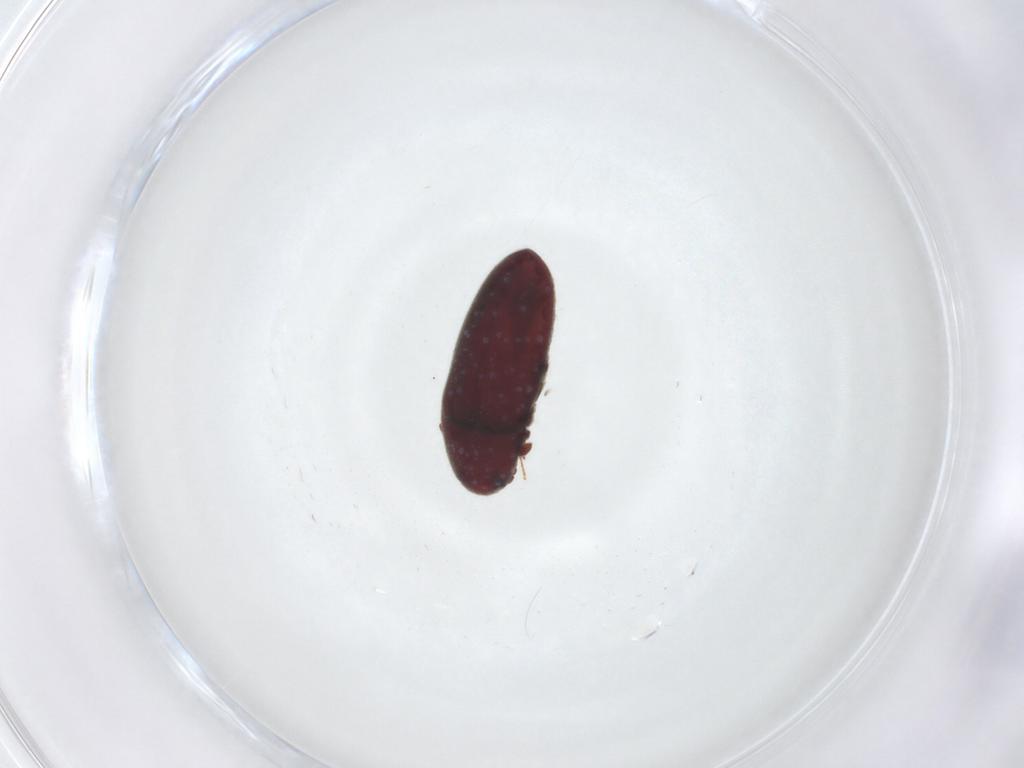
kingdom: Animalia
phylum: Arthropoda
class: Insecta
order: Coleoptera
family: Throscidae
